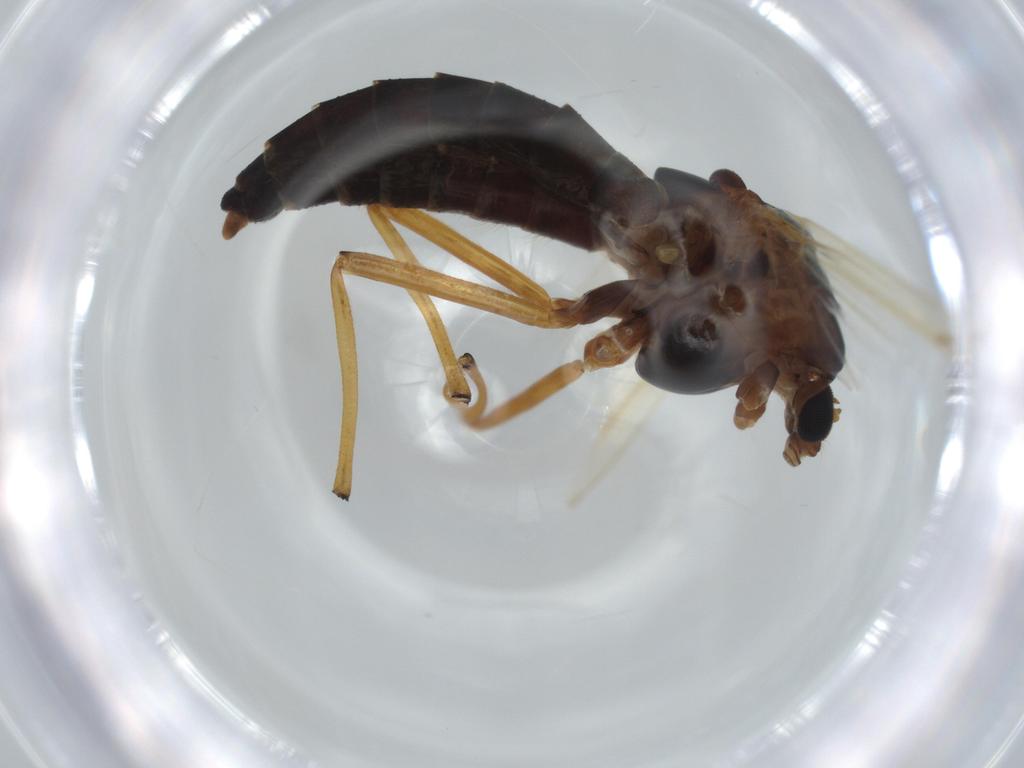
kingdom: Animalia
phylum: Arthropoda
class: Insecta
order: Diptera
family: Chironomidae
